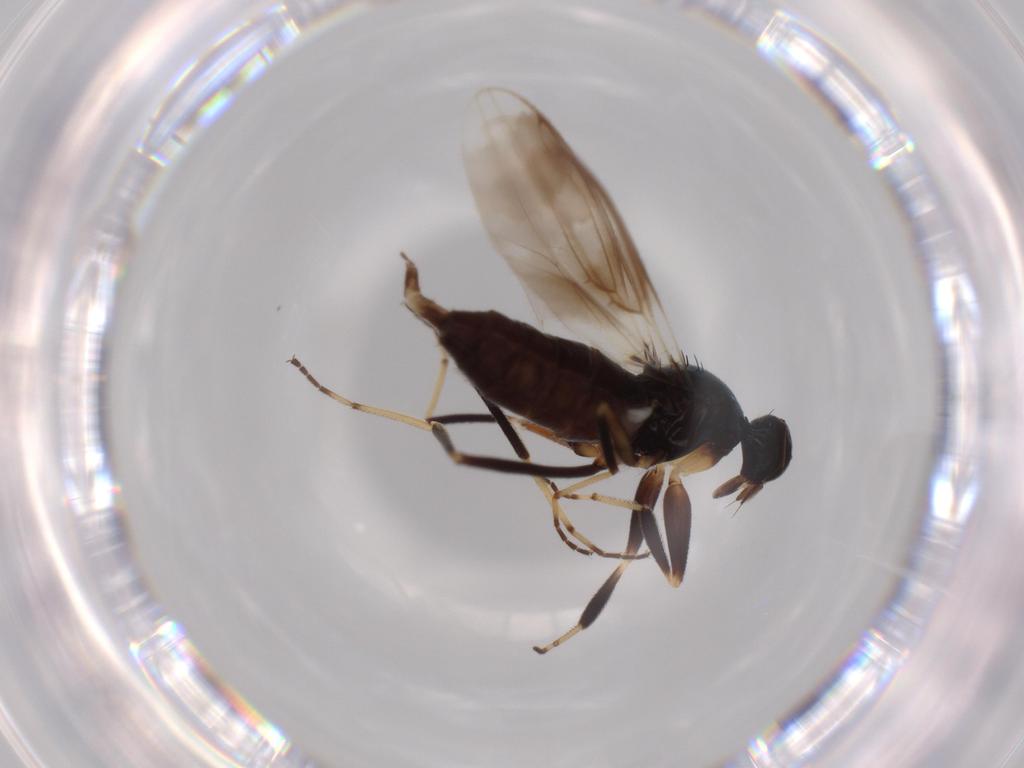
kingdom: Animalia
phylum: Arthropoda
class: Insecta
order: Diptera
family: Hybotidae
